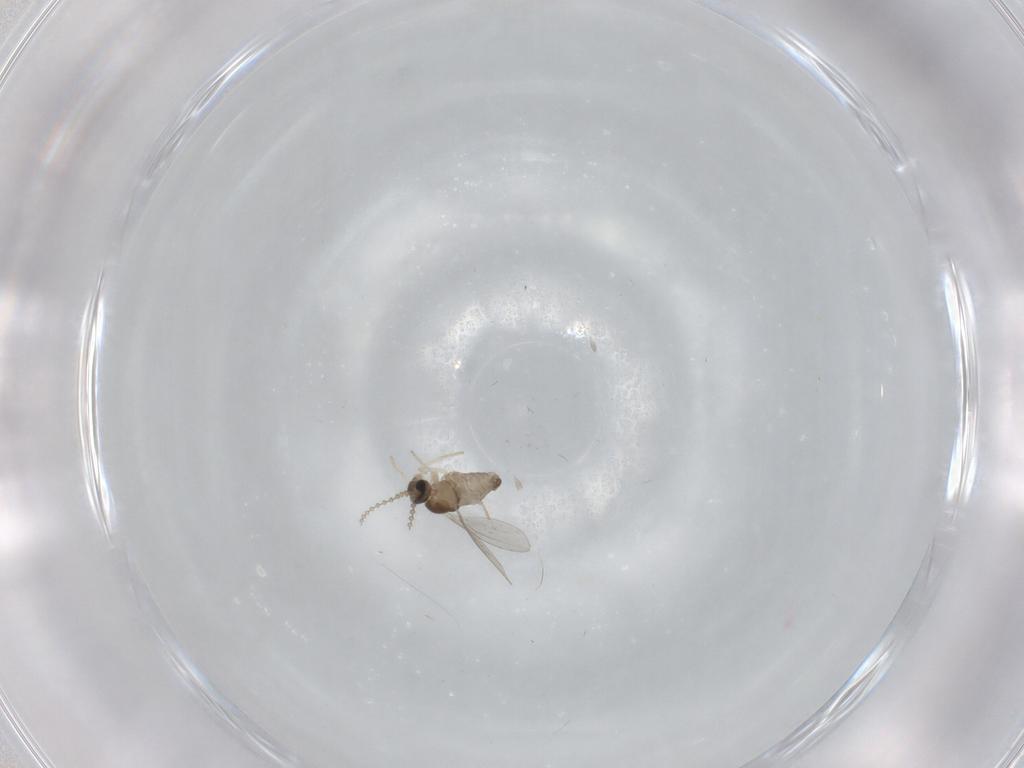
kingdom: Animalia
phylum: Arthropoda
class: Insecta
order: Diptera
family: Cecidomyiidae
